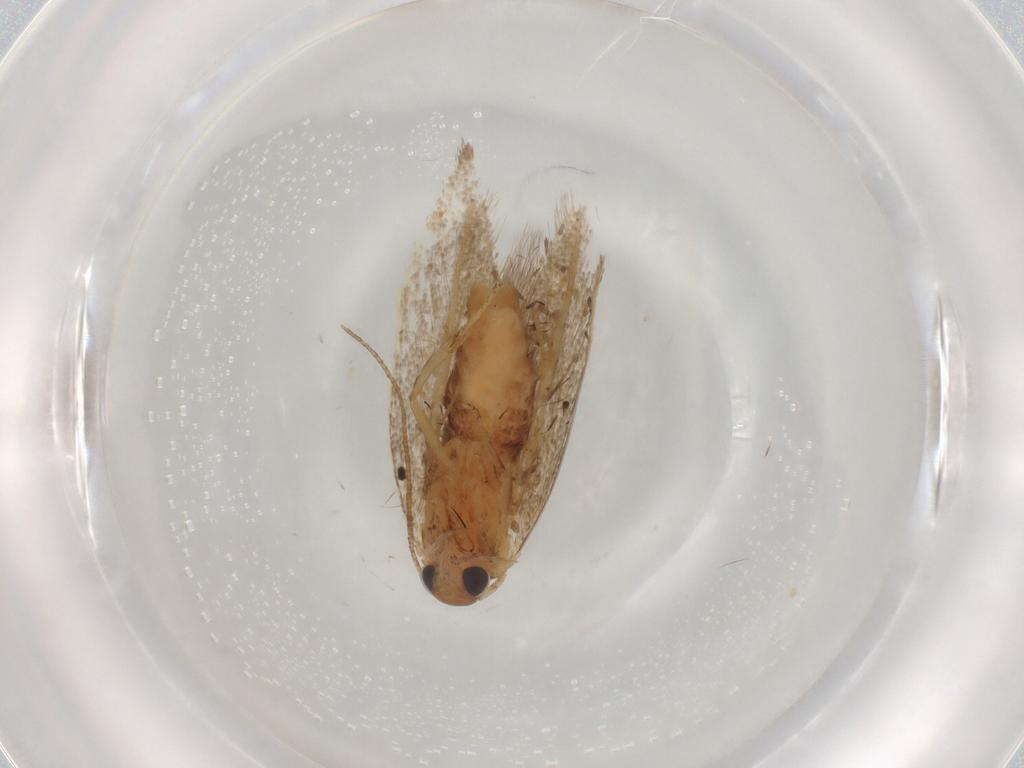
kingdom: Animalia
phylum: Arthropoda
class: Insecta
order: Lepidoptera
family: Oecophoridae
